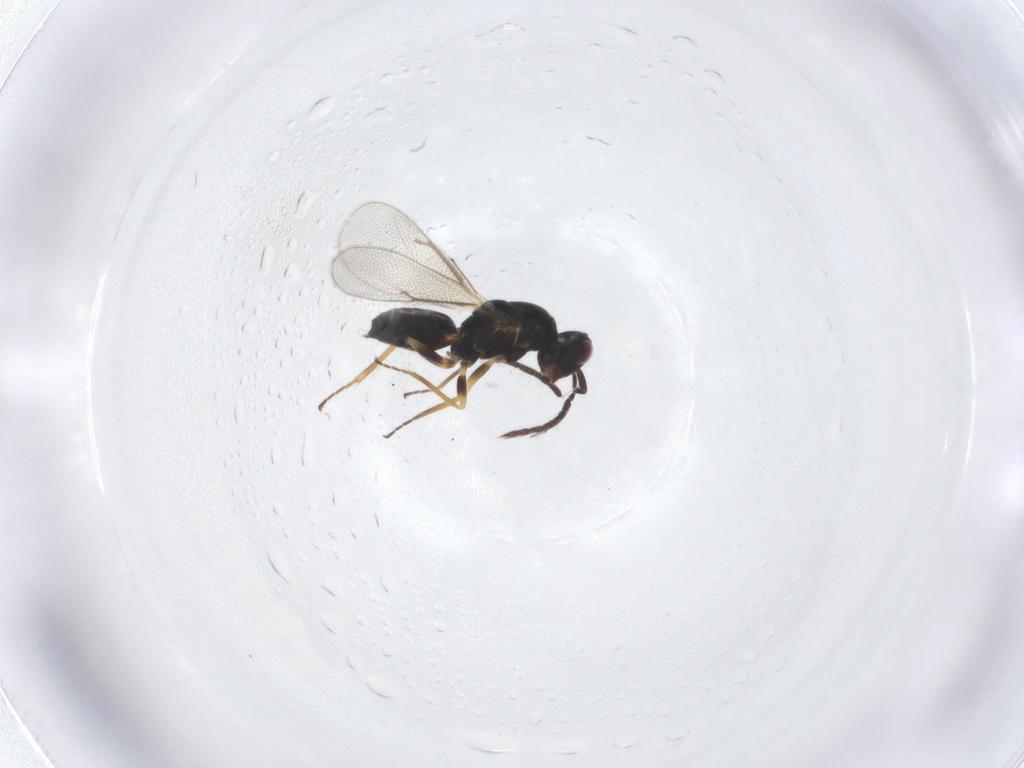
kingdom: Animalia
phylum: Arthropoda
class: Insecta
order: Hymenoptera
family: Eulophidae
